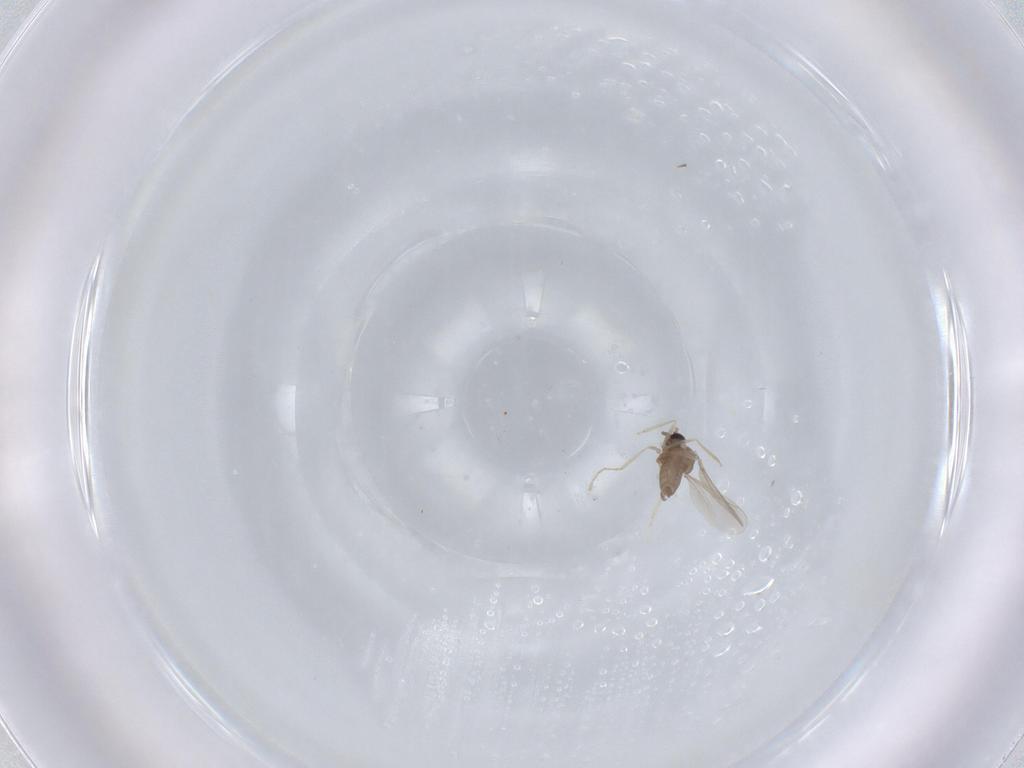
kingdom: Animalia
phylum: Arthropoda
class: Insecta
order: Diptera
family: Cecidomyiidae
